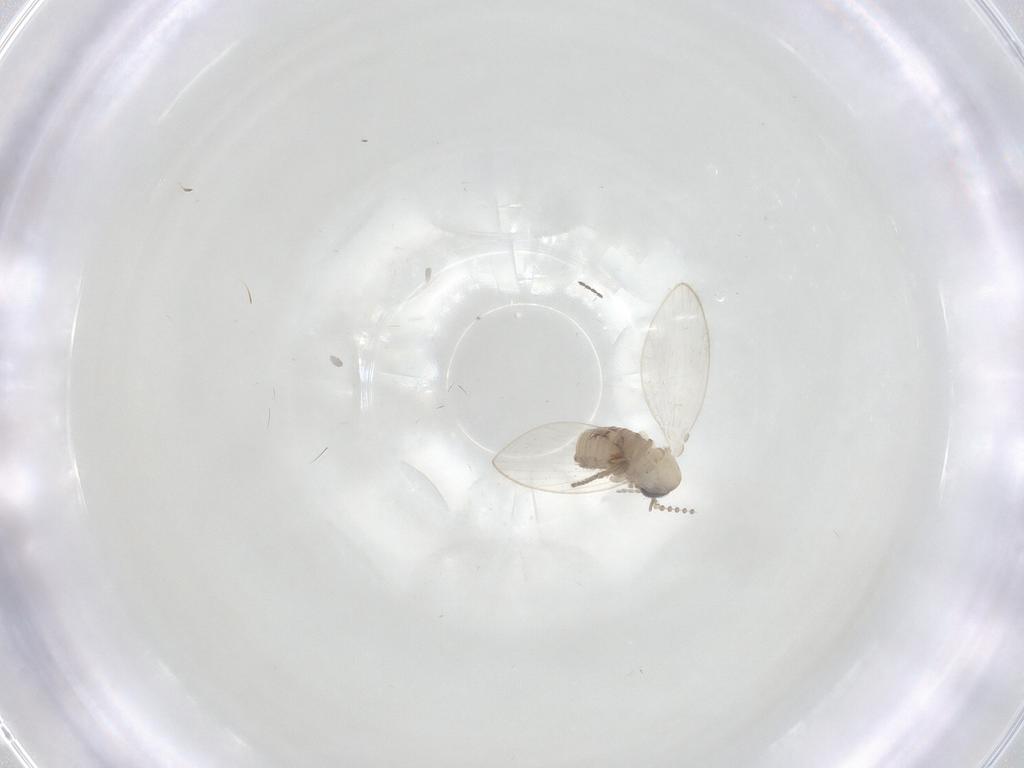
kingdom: Animalia
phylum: Arthropoda
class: Insecta
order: Diptera
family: Psychodidae
